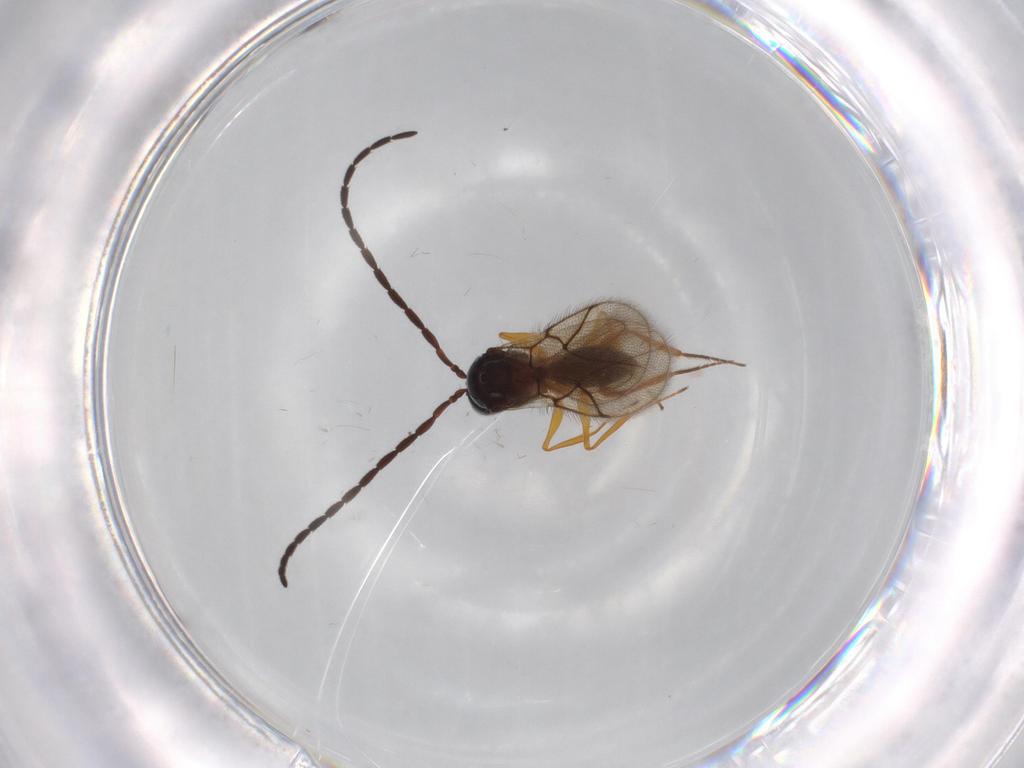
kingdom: Animalia
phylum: Arthropoda
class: Insecta
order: Hymenoptera
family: Figitidae
